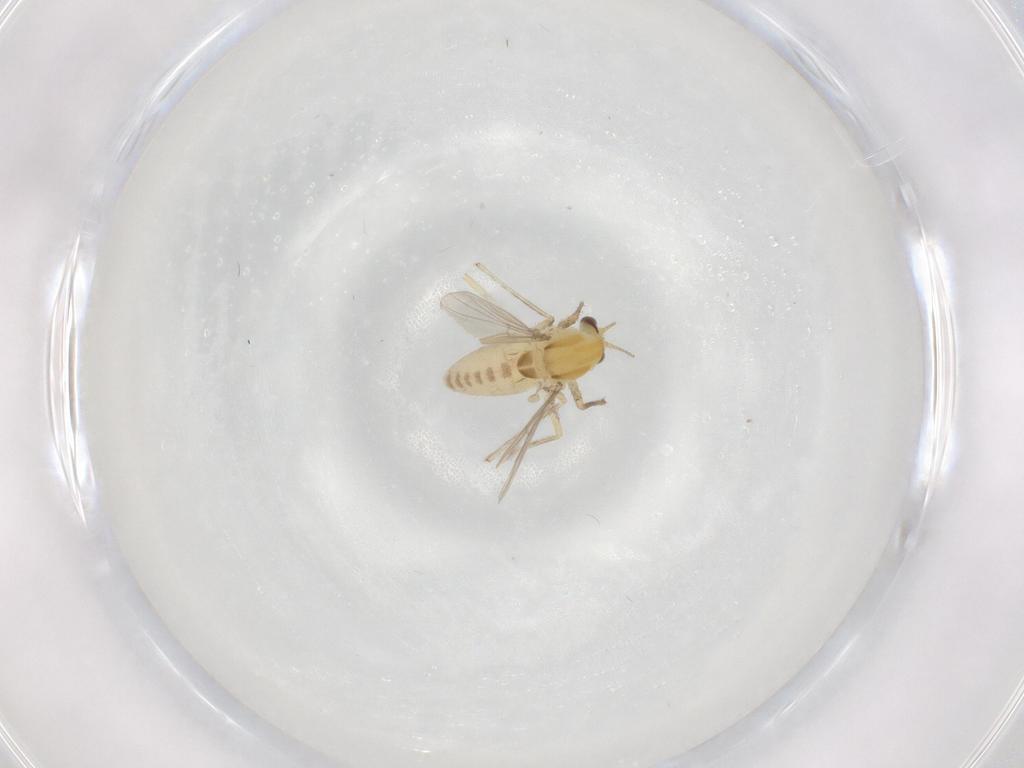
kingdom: Animalia
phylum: Arthropoda
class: Insecta
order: Diptera
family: Chironomidae
